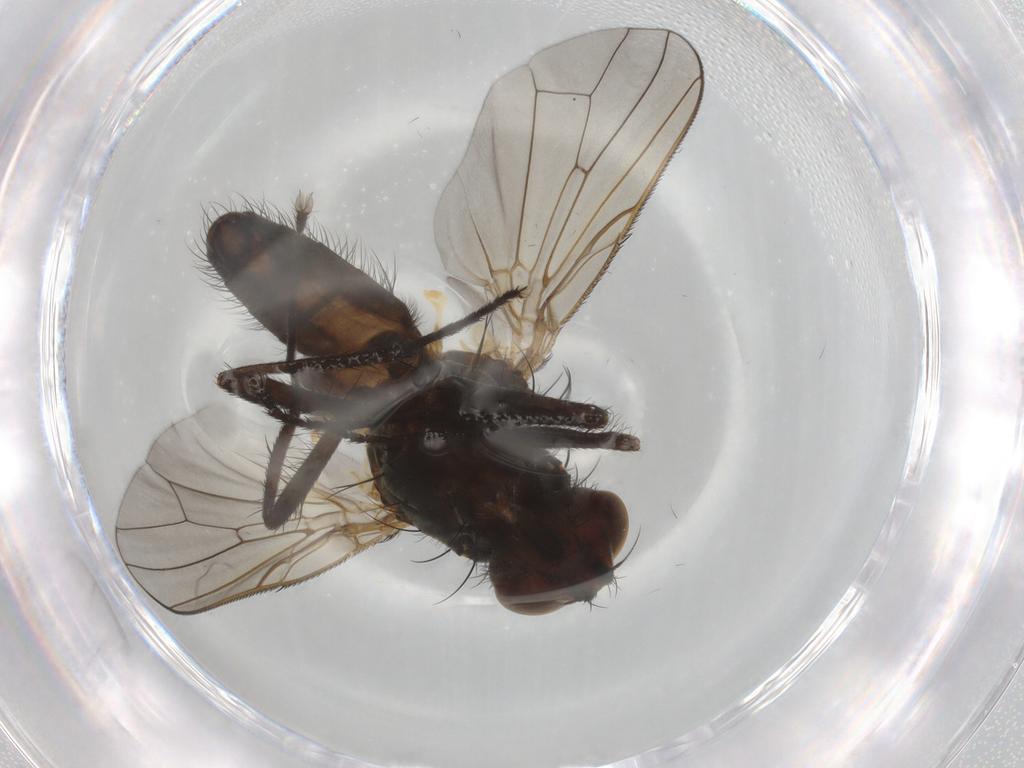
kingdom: Animalia
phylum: Arthropoda
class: Insecta
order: Diptera
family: Anthomyiidae
